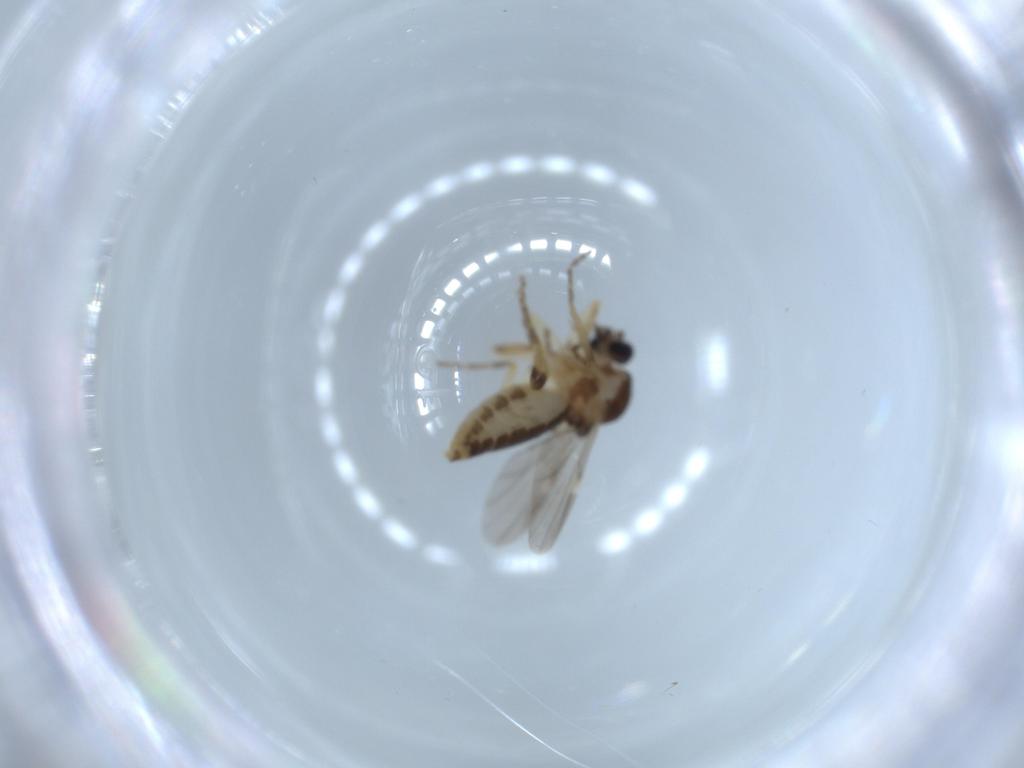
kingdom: Animalia
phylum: Arthropoda
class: Insecta
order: Diptera
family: Ceratopogonidae
